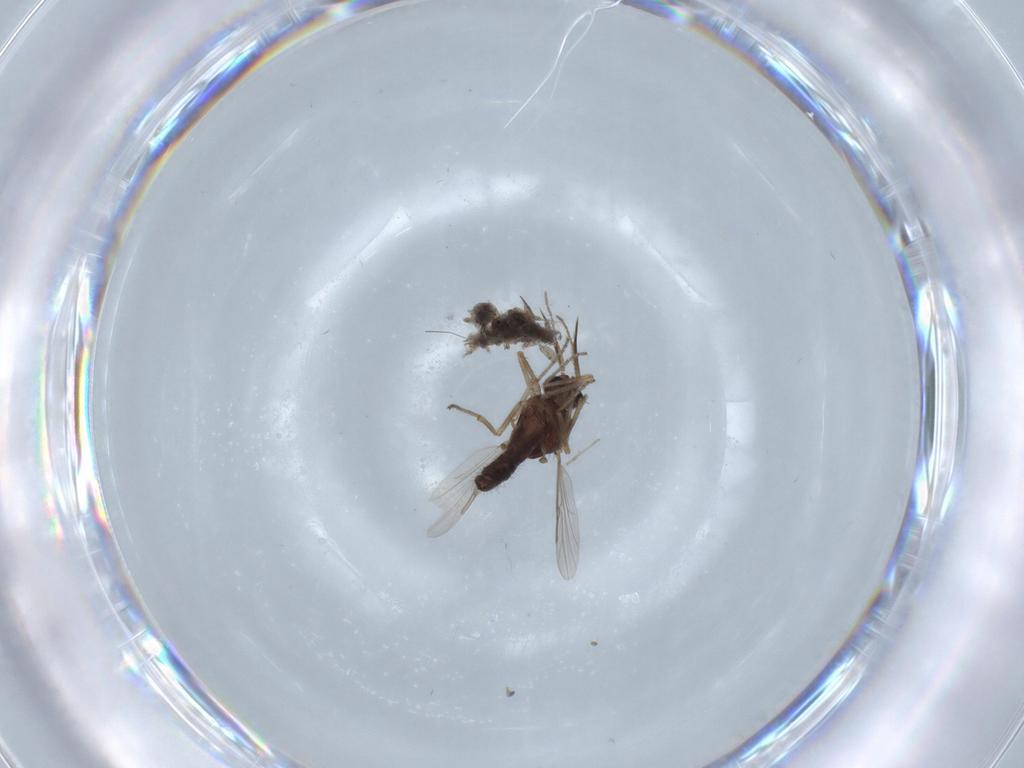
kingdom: Animalia
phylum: Arthropoda
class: Insecta
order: Diptera
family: Ceratopogonidae
